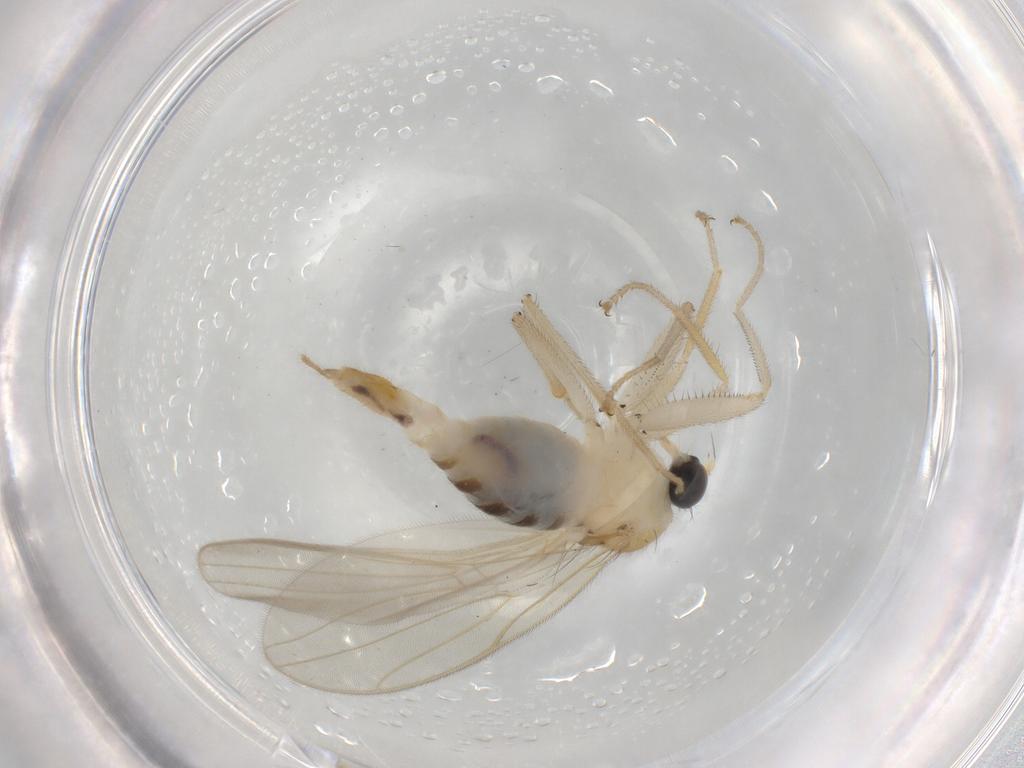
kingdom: Animalia
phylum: Arthropoda
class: Insecta
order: Diptera
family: Hybotidae
